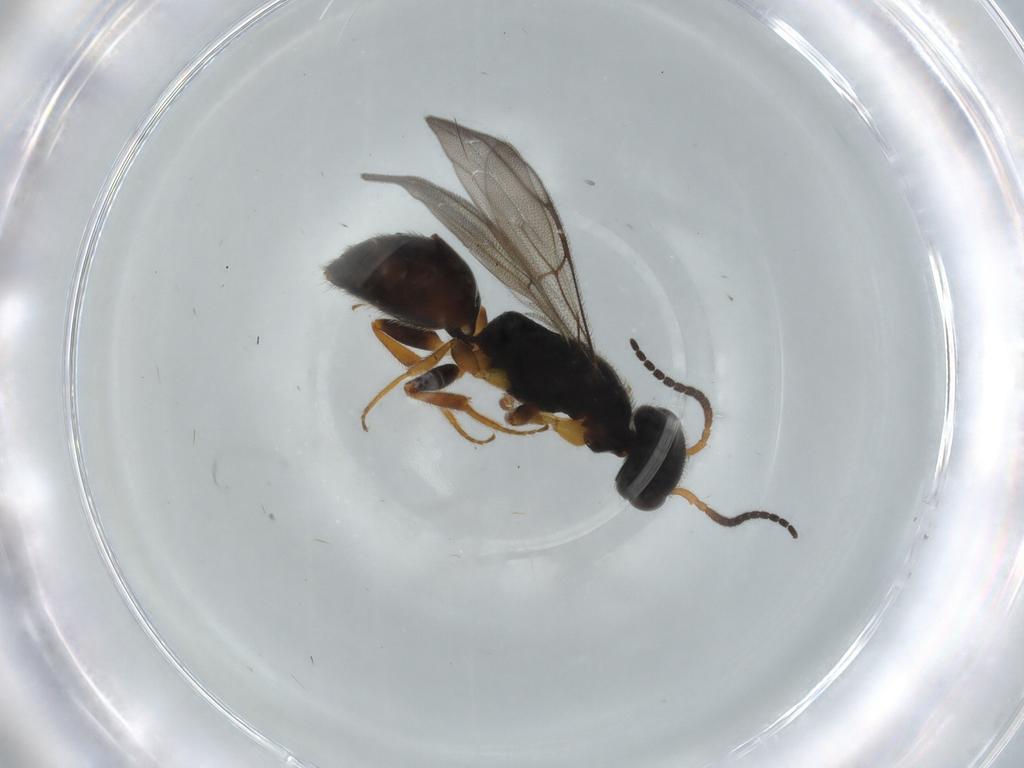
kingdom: Animalia
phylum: Arthropoda
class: Insecta
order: Hymenoptera
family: Bethylidae
